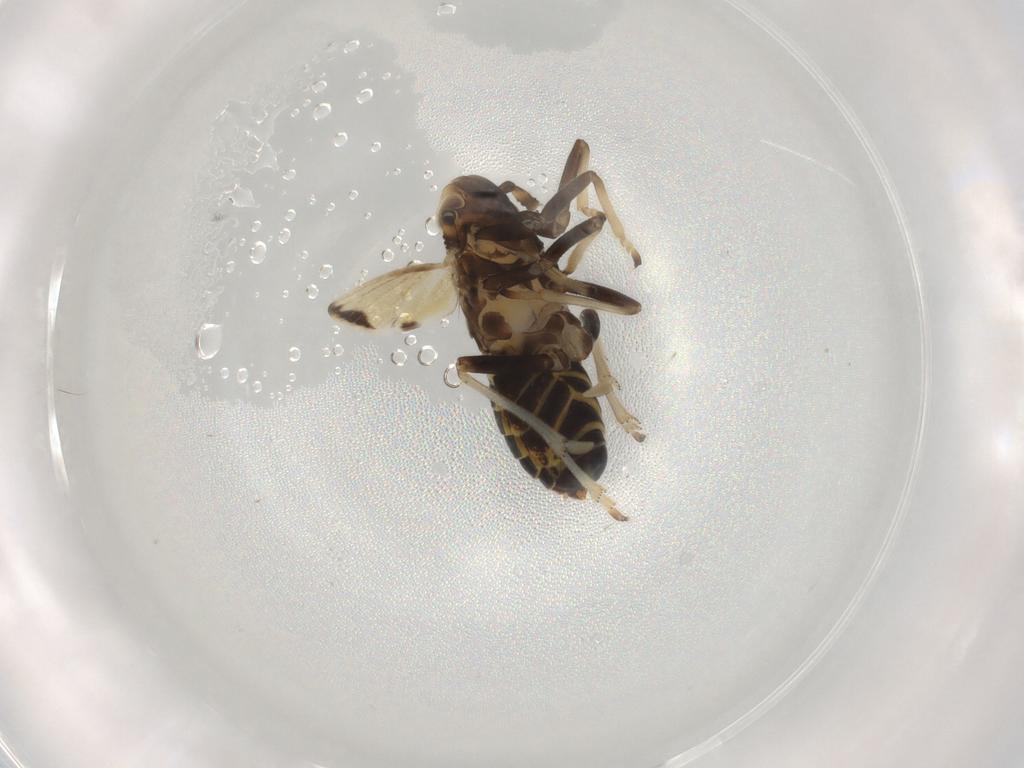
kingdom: Animalia
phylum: Arthropoda
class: Insecta
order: Hemiptera
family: Delphacidae
